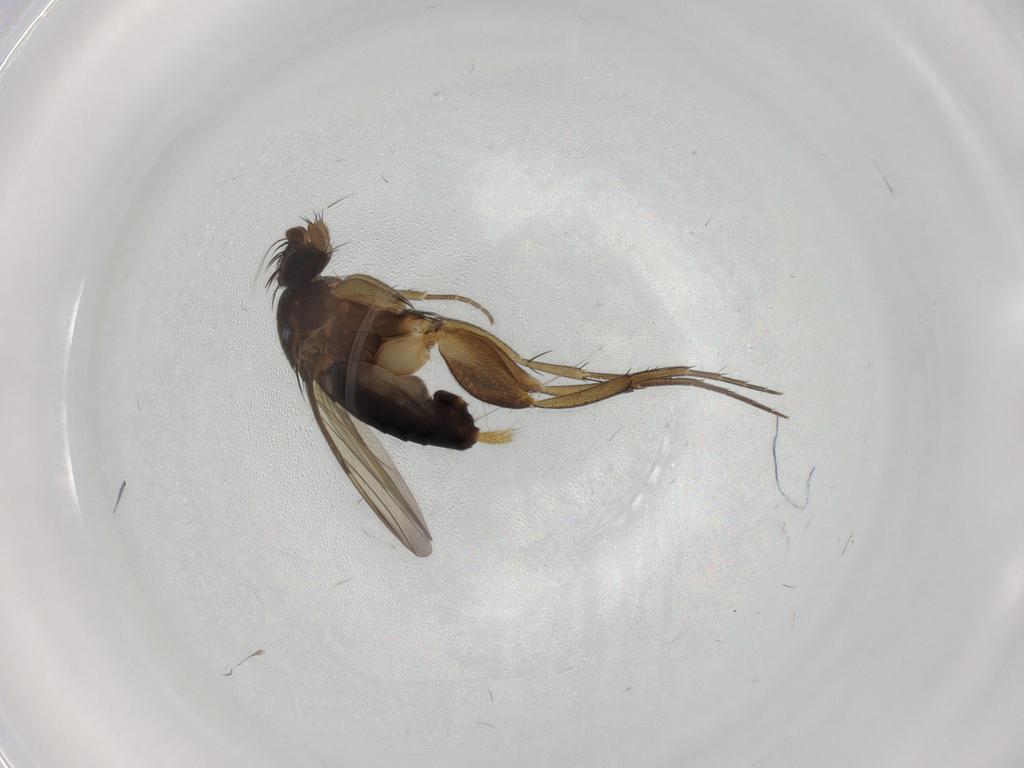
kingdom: Animalia
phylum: Arthropoda
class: Insecta
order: Diptera
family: Phoridae
